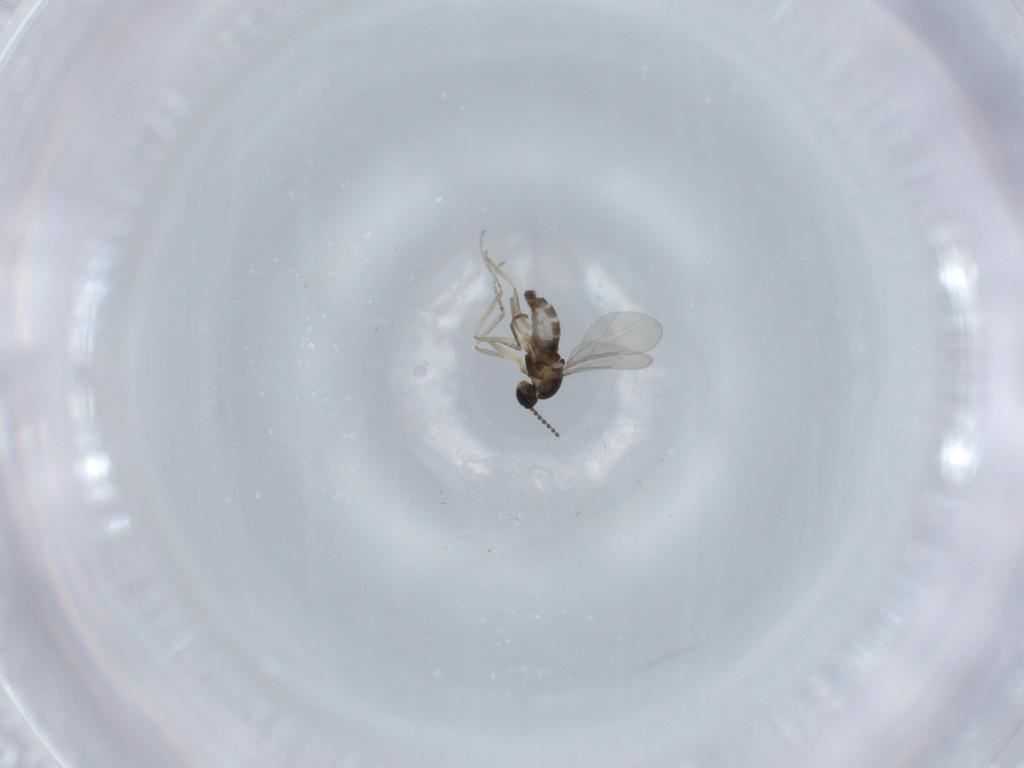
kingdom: Animalia
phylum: Arthropoda
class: Insecta
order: Diptera
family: Cecidomyiidae
